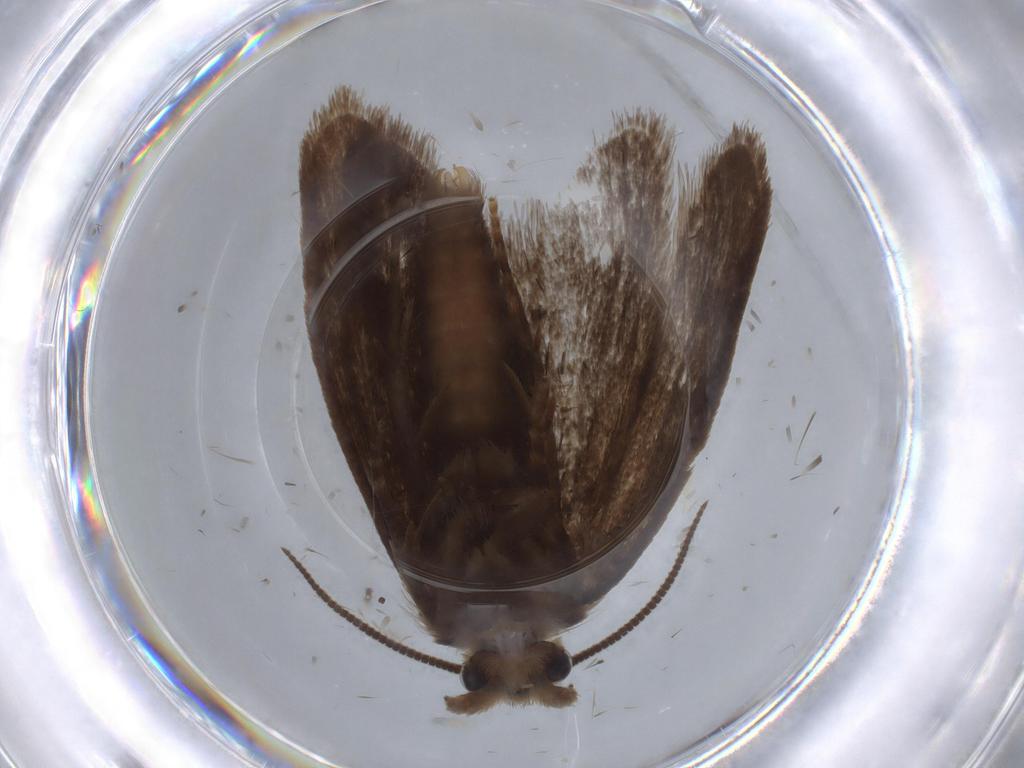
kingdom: Animalia
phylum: Arthropoda
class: Insecta
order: Lepidoptera
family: Tineidae
